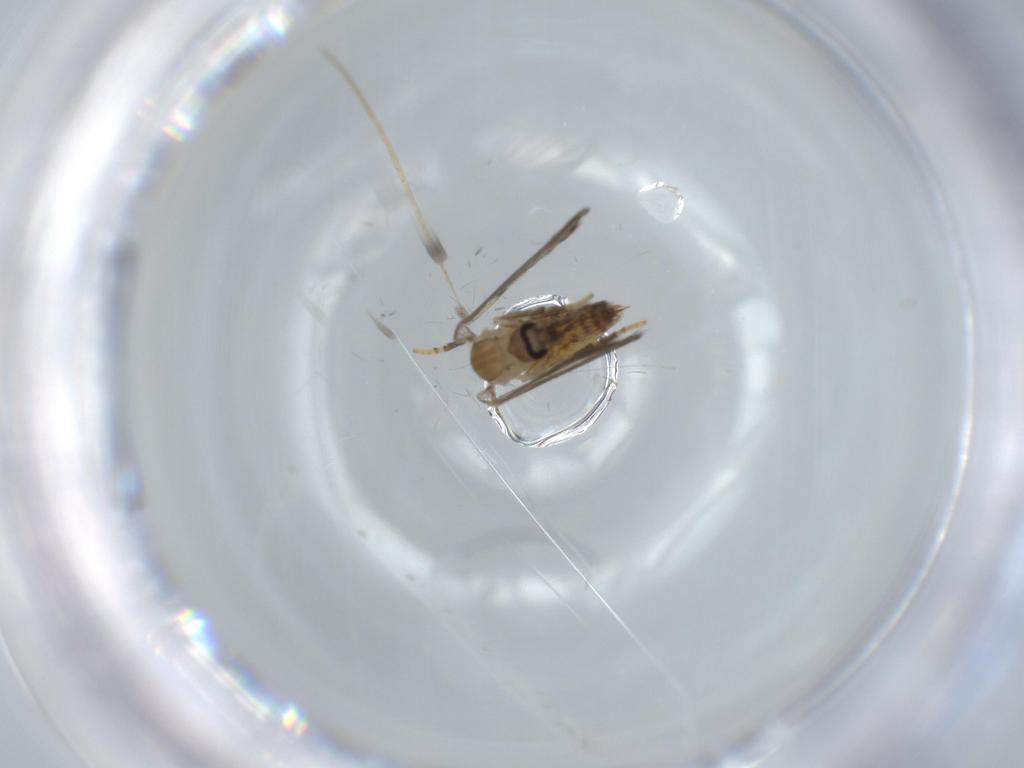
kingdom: Animalia
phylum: Arthropoda
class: Insecta
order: Diptera
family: Psychodidae
